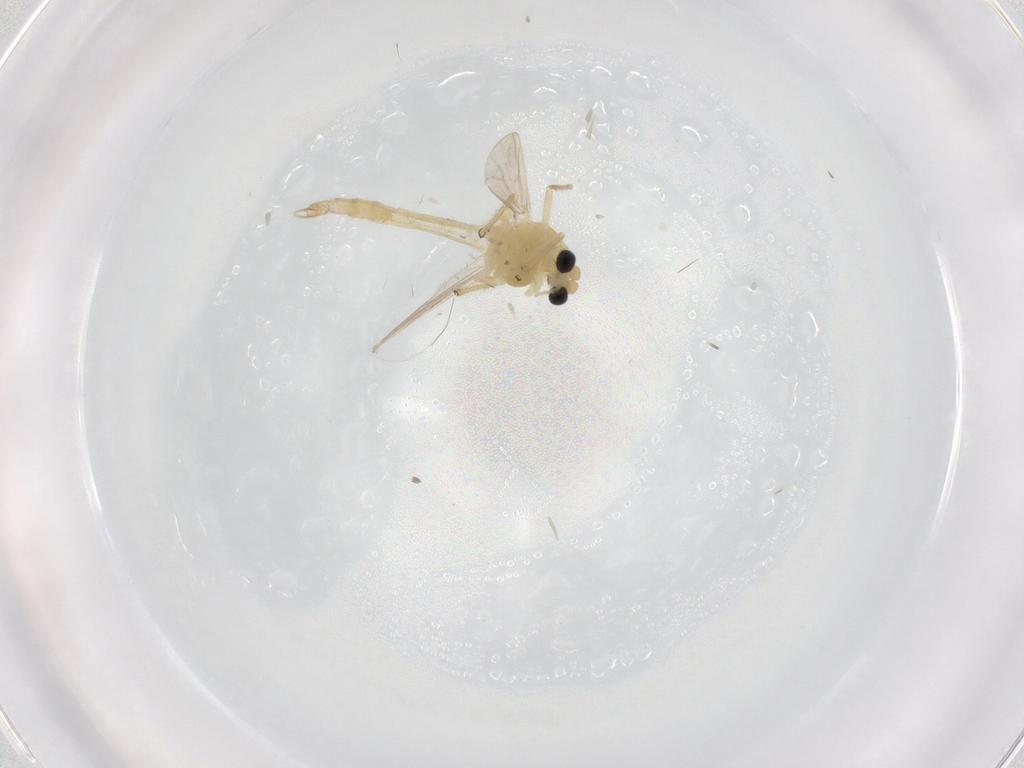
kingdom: Animalia
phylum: Arthropoda
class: Insecta
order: Diptera
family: Chironomidae
